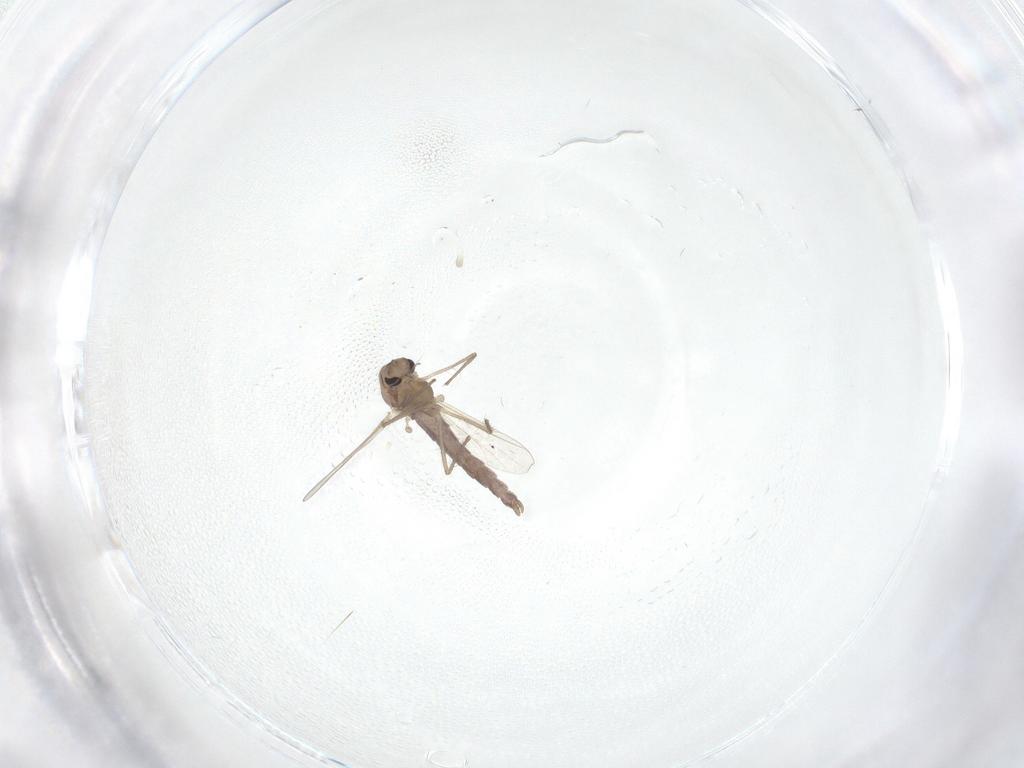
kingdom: Animalia
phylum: Arthropoda
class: Insecta
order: Diptera
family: Chironomidae
